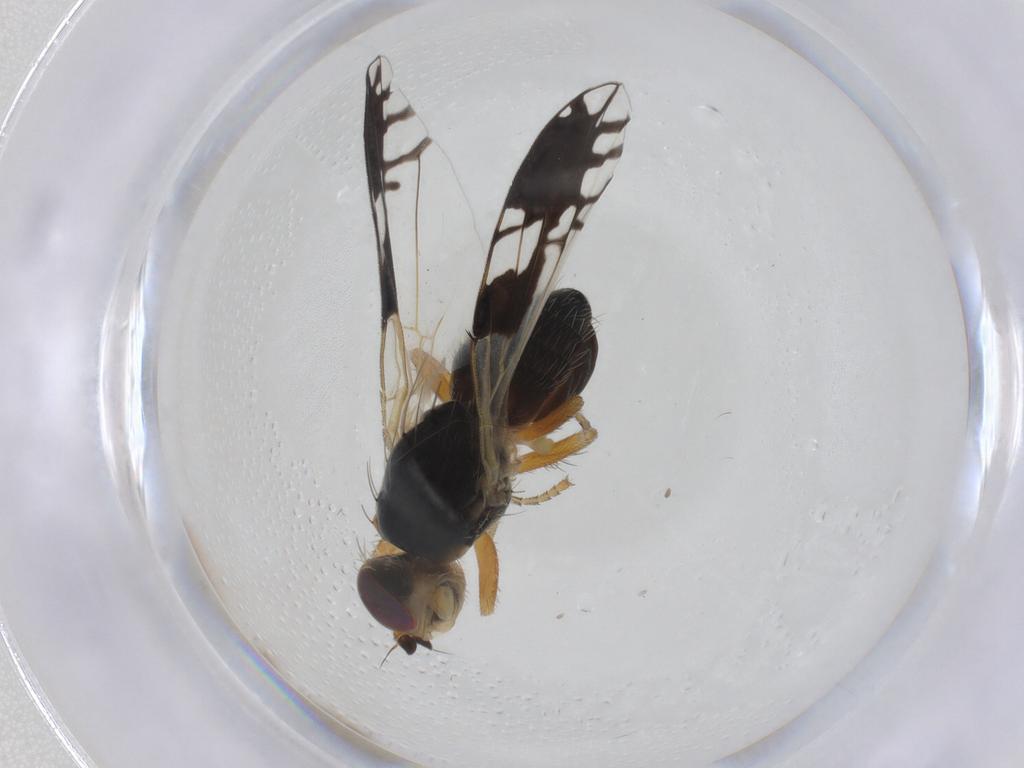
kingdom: Animalia
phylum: Arthropoda
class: Insecta
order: Diptera
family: Tephritidae
